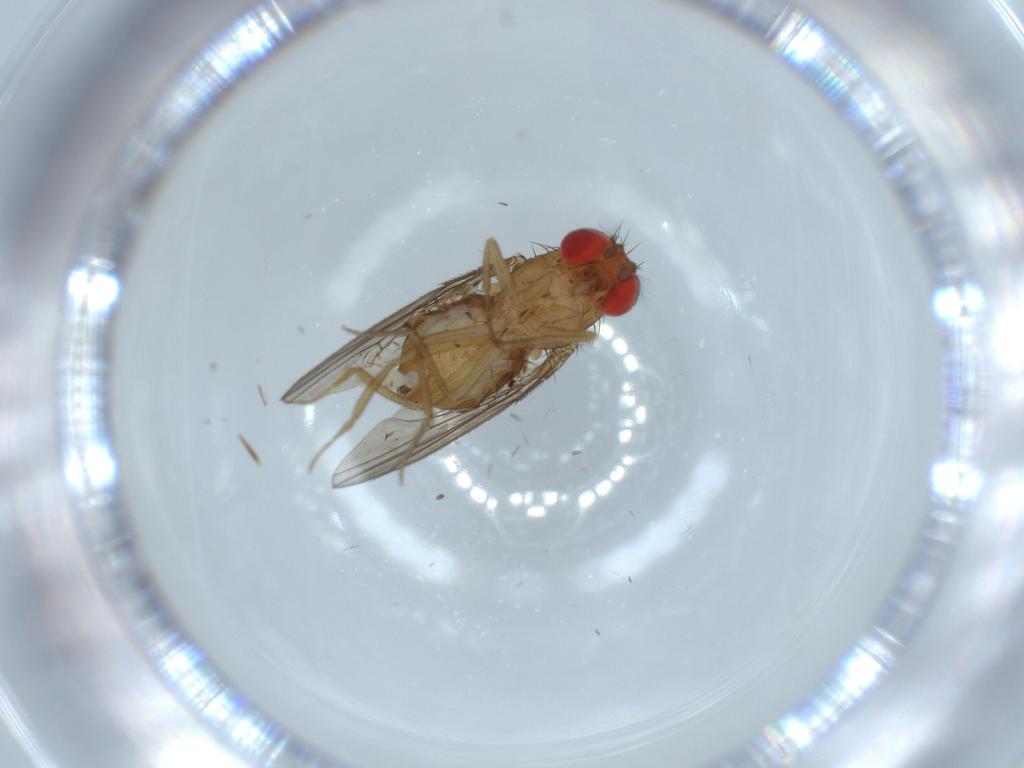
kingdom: Animalia
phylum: Arthropoda
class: Insecta
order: Diptera
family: Drosophilidae
